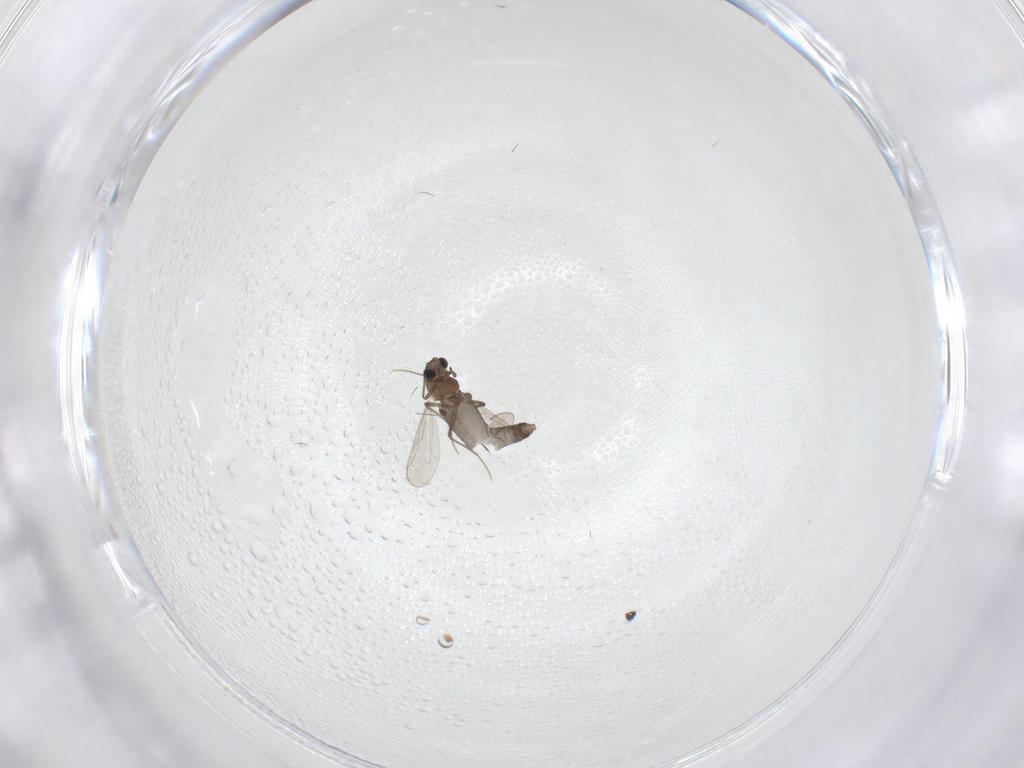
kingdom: Animalia
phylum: Arthropoda
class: Insecta
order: Diptera
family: Chironomidae
